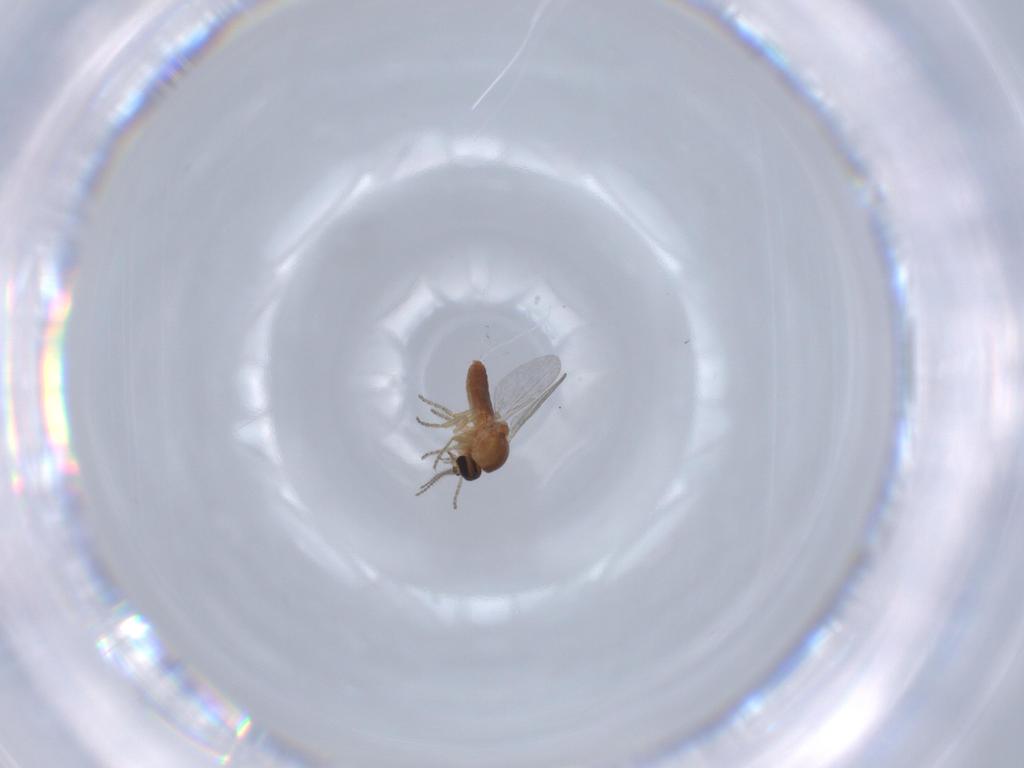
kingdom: Animalia
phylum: Arthropoda
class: Insecta
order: Diptera
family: Ceratopogonidae
